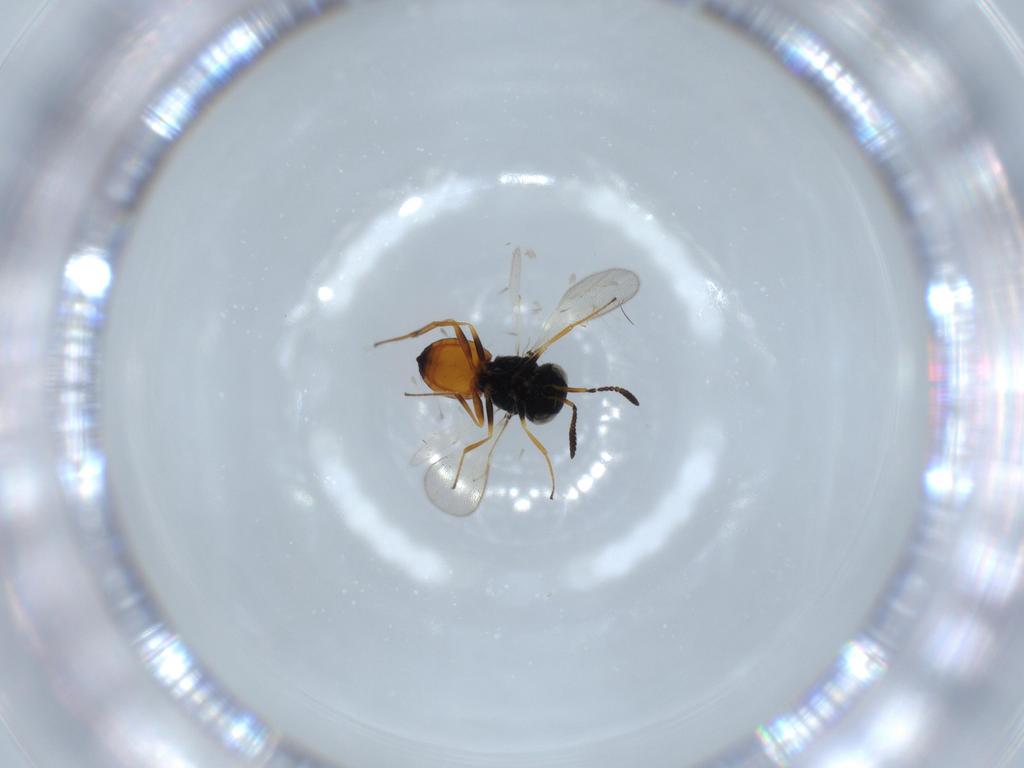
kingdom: Animalia
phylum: Arthropoda
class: Insecta
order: Hymenoptera
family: Scelionidae
